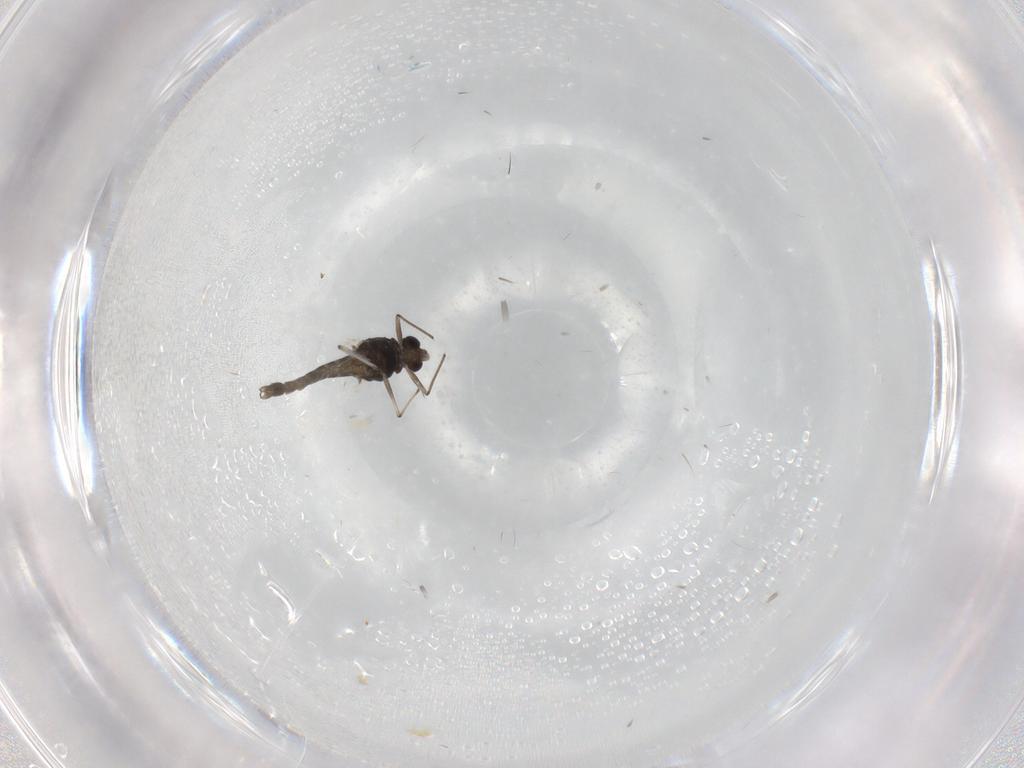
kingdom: Animalia
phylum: Arthropoda
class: Insecta
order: Diptera
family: Chironomidae
